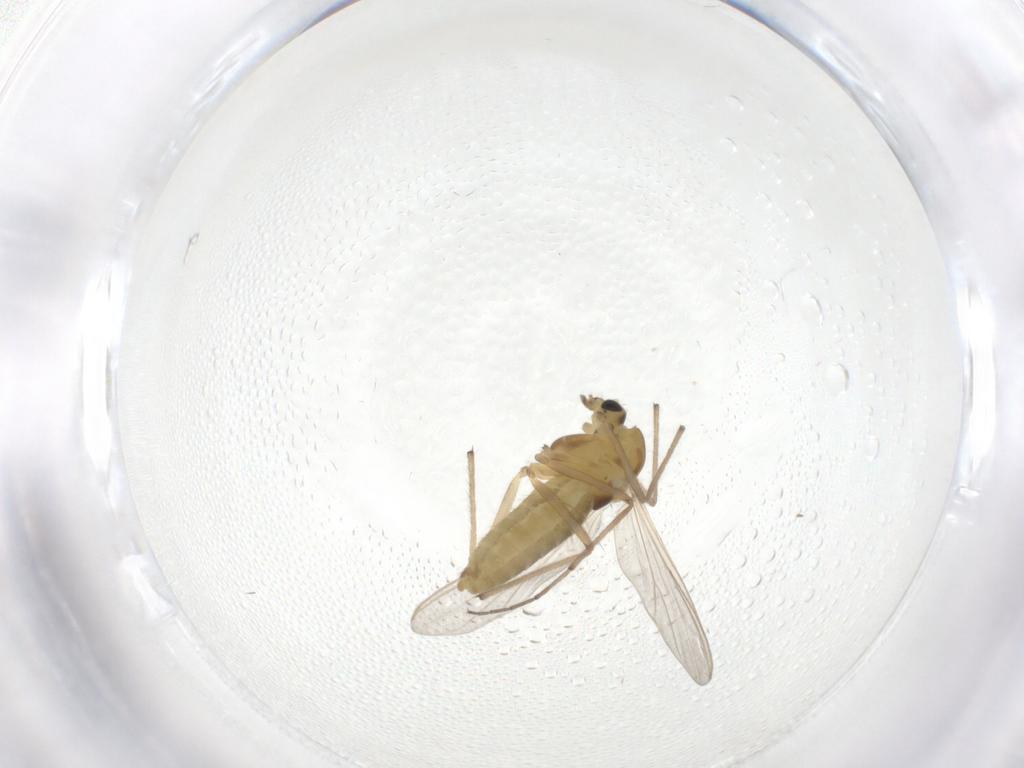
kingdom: Animalia
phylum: Arthropoda
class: Insecta
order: Diptera
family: Chironomidae
